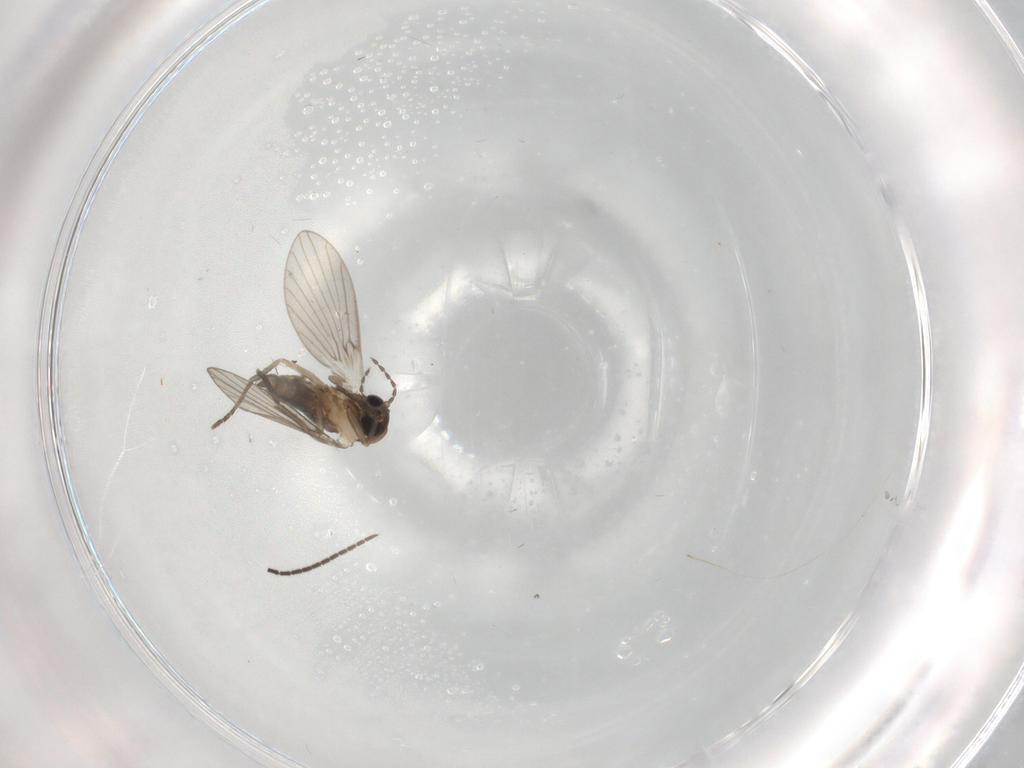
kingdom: Animalia
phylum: Arthropoda
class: Insecta
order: Diptera
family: Psychodidae
